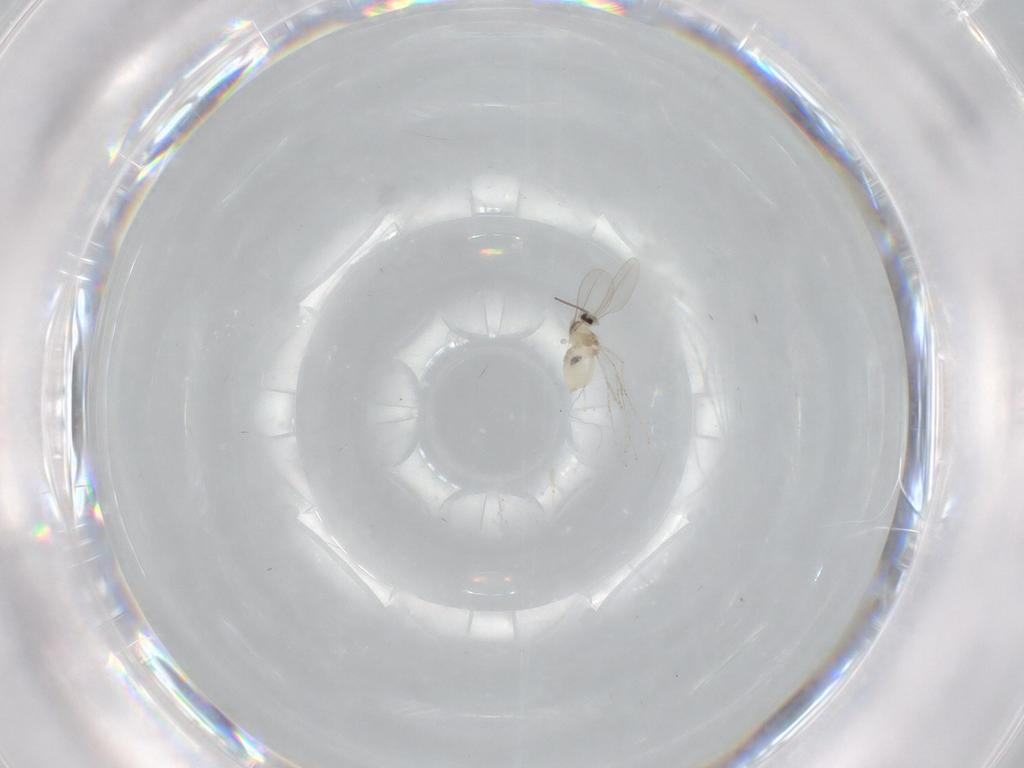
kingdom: Animalia
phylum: Arthropoda
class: Insecta
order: Diptera
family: Cecidomyiidae
